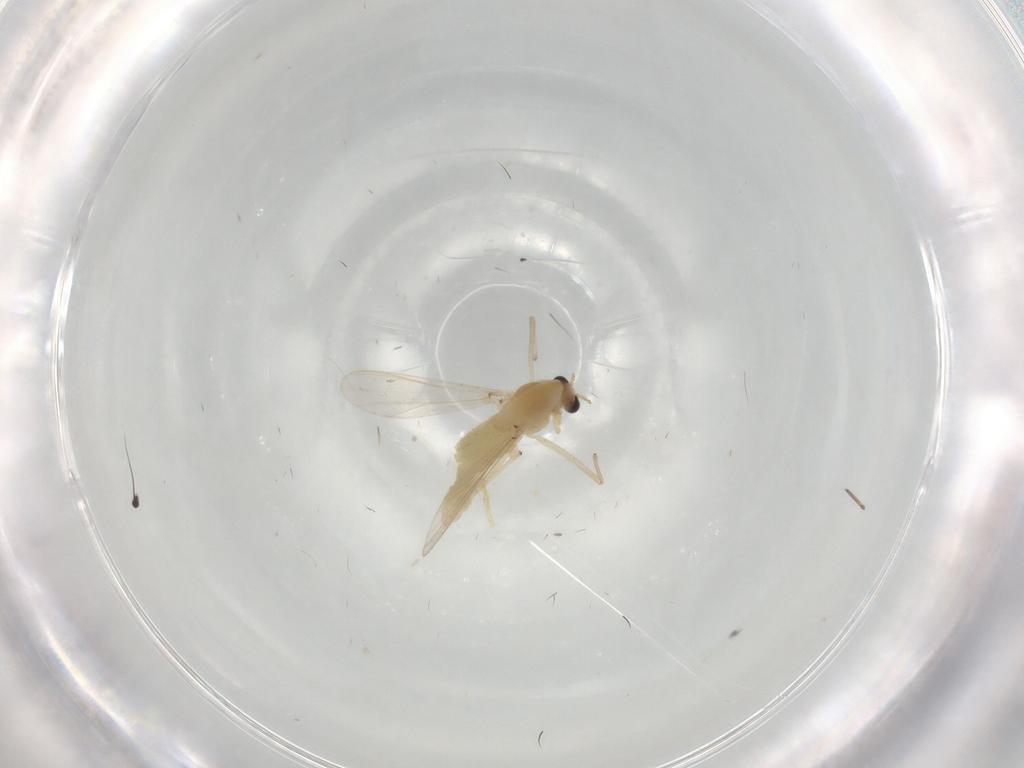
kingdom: Animalia
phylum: Arthropoda
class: Insecta
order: Diptera
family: Chironomidae
